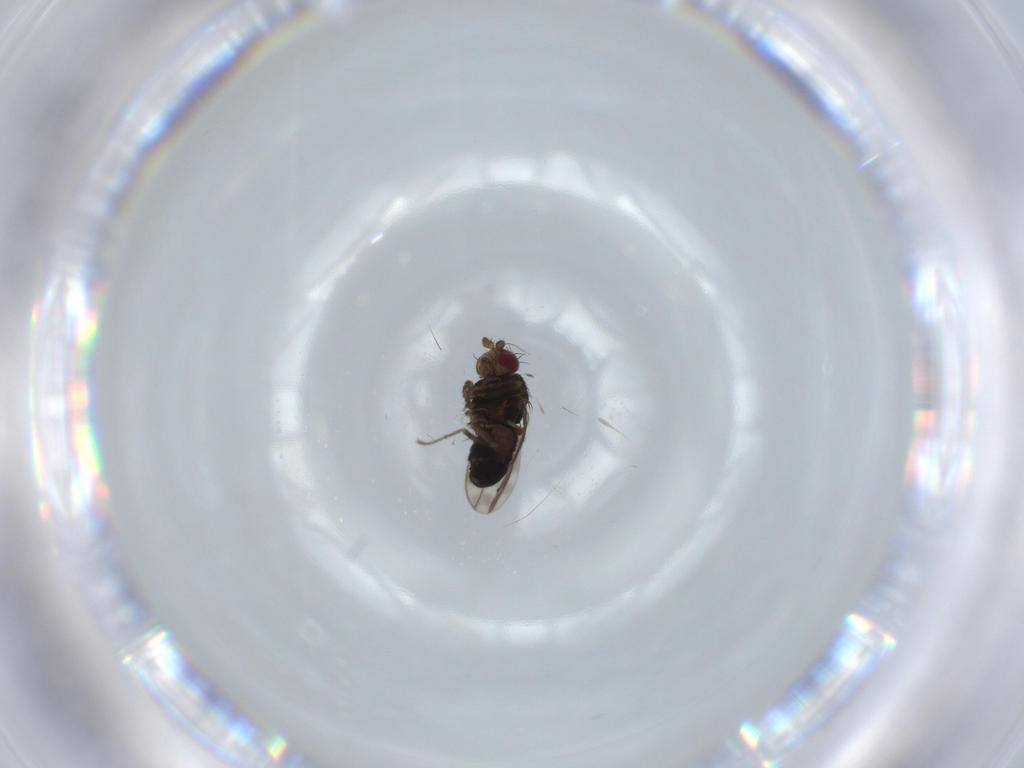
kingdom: Animalia
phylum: Arthropoda
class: Insecta
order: Diptera
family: Sphaeroceridae
